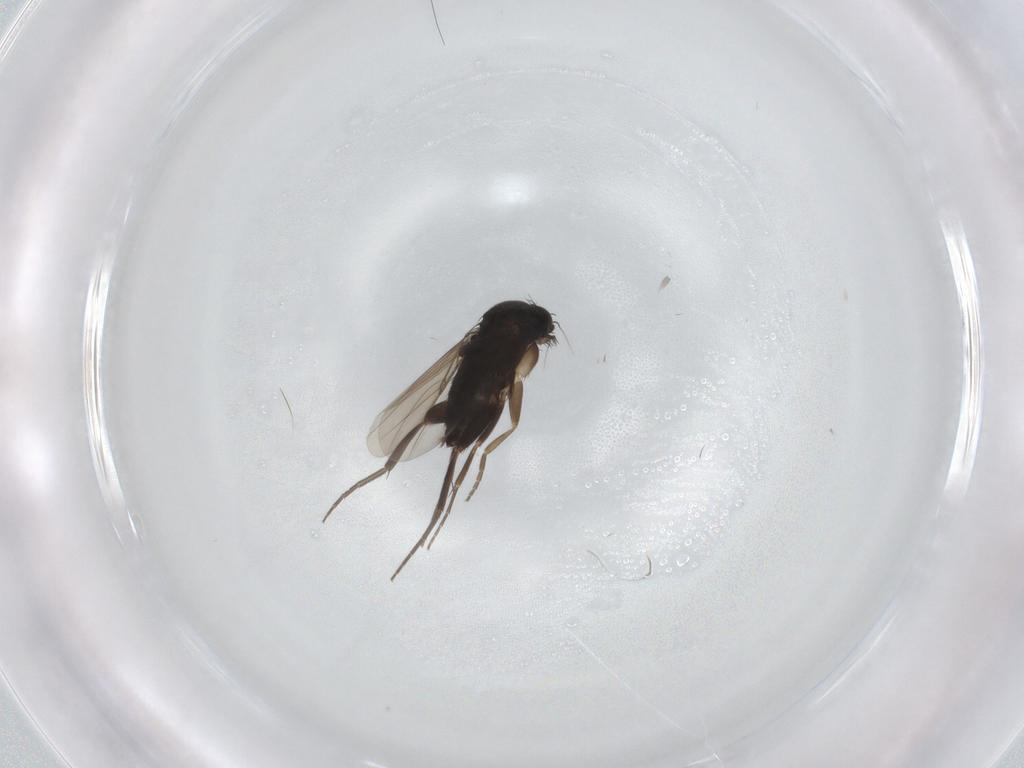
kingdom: Animalia
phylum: Arthropoda
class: Insecta
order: Diptera
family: Phoridae
